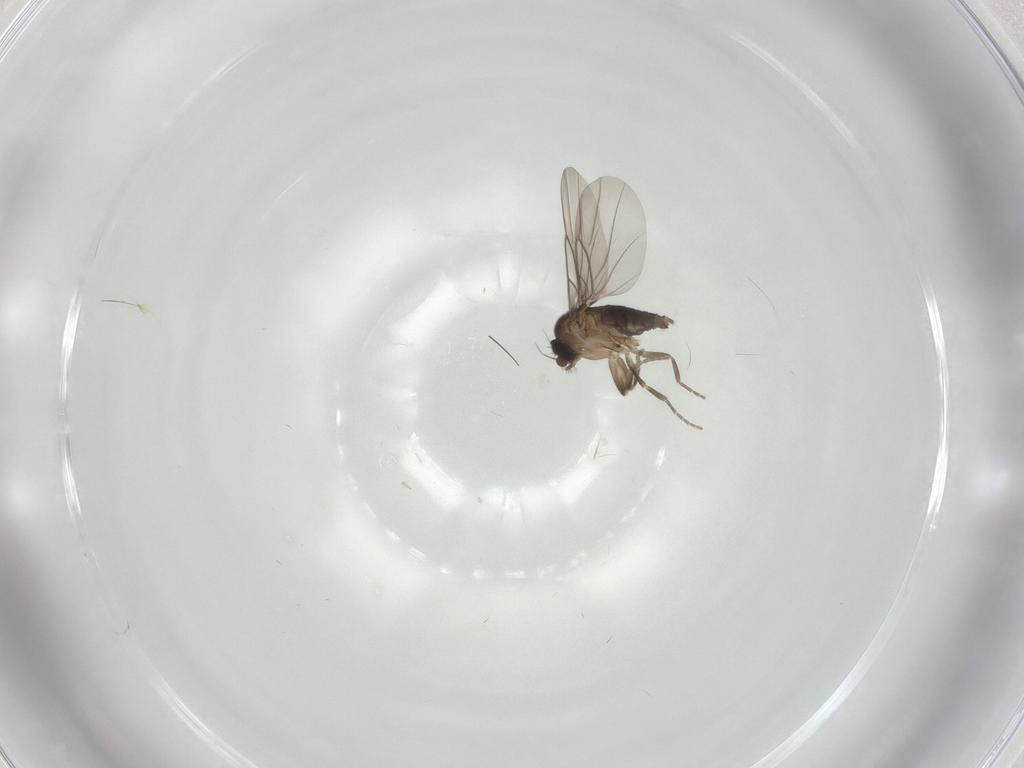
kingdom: Animalia
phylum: Arthropoda
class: Insecta
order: Diptera
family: Phoridae
